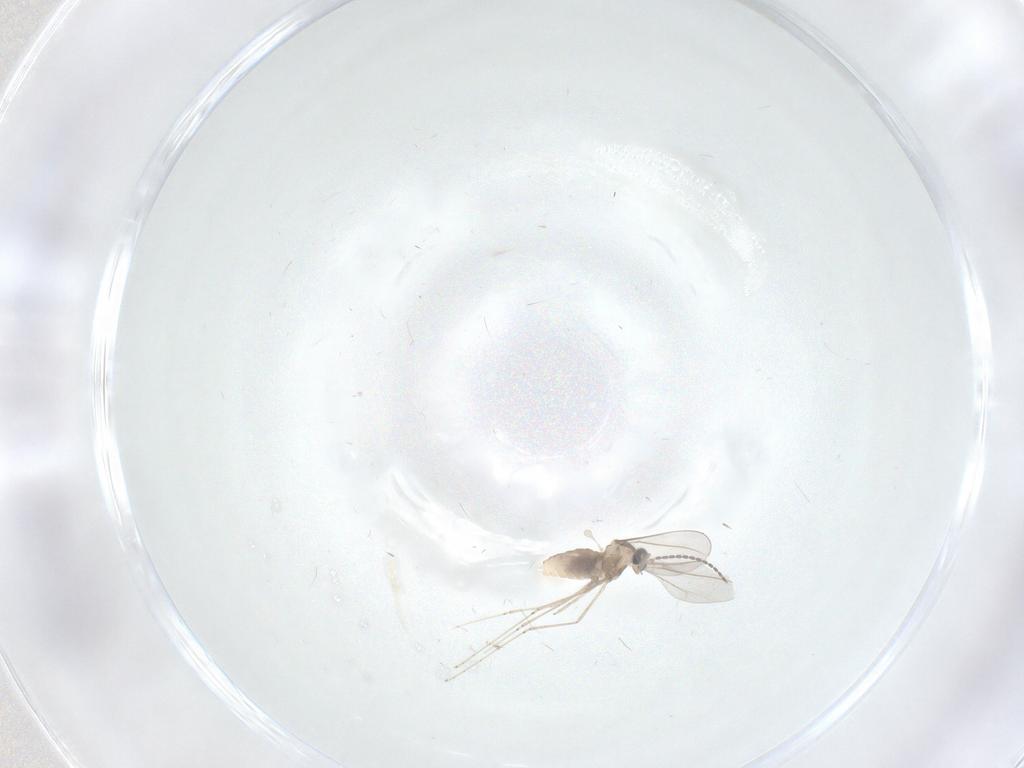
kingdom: Animalia
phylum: Arthropoda
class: Insecta
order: Diptera
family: Cecidomyiidae
